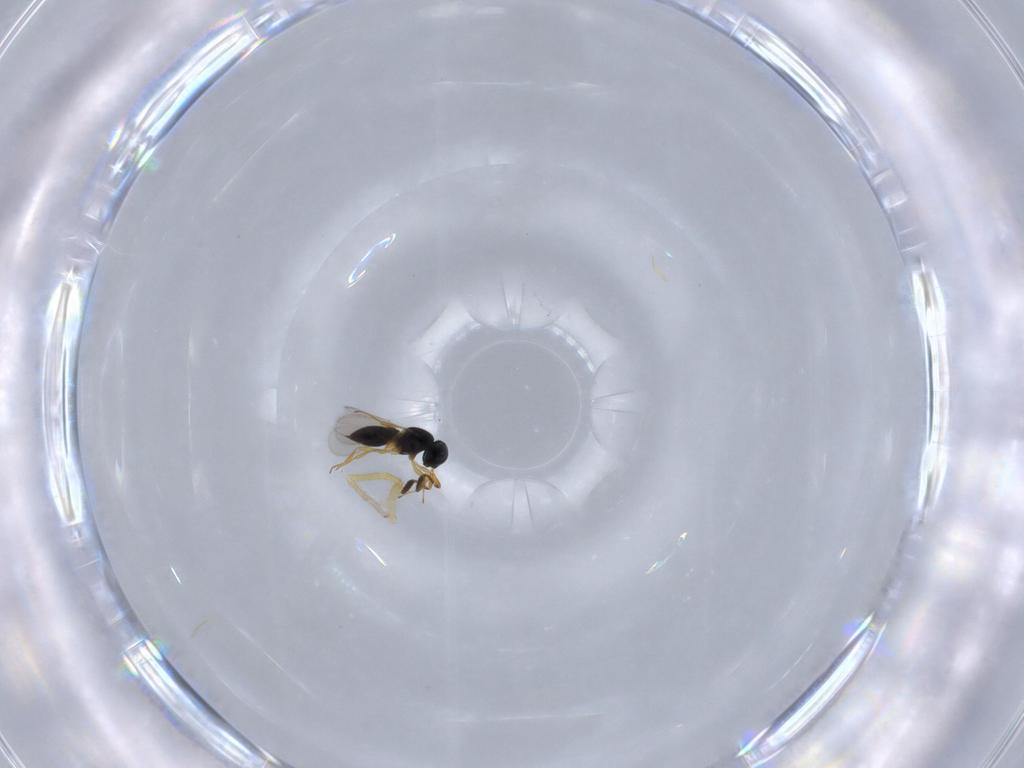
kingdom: Animalia
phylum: Arthropoda
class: Insecta
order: Hymenoptera
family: Scelionidae
